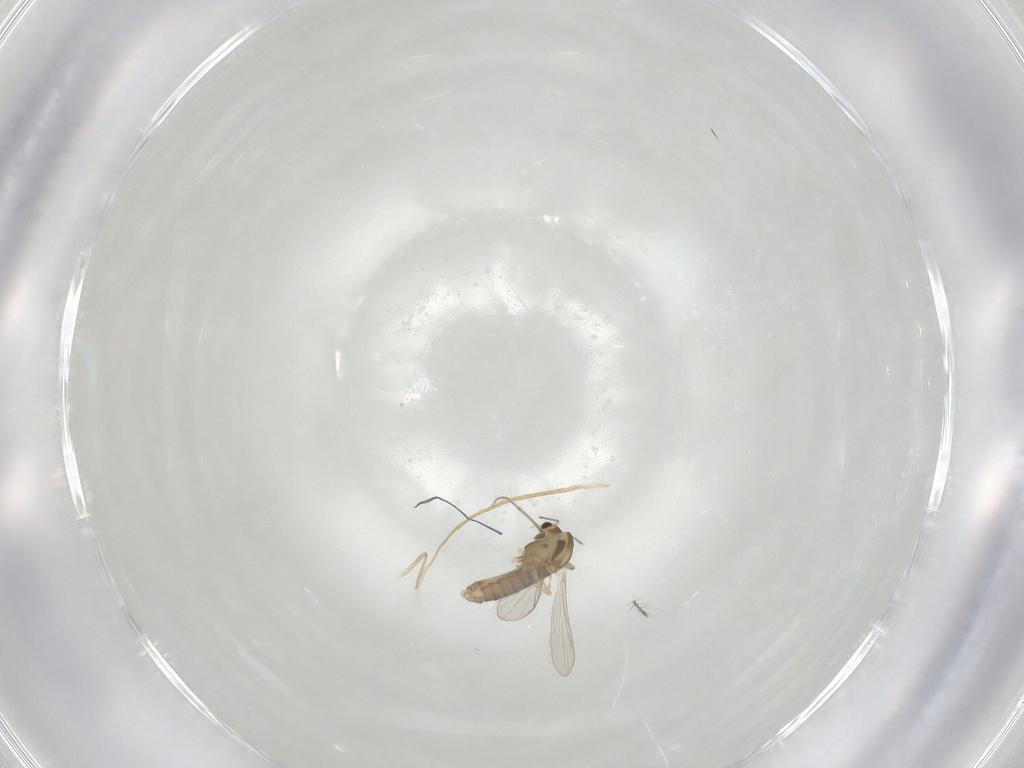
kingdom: Animalia
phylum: Arthropoda
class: Insecta
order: Diptera
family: Chironomidae
